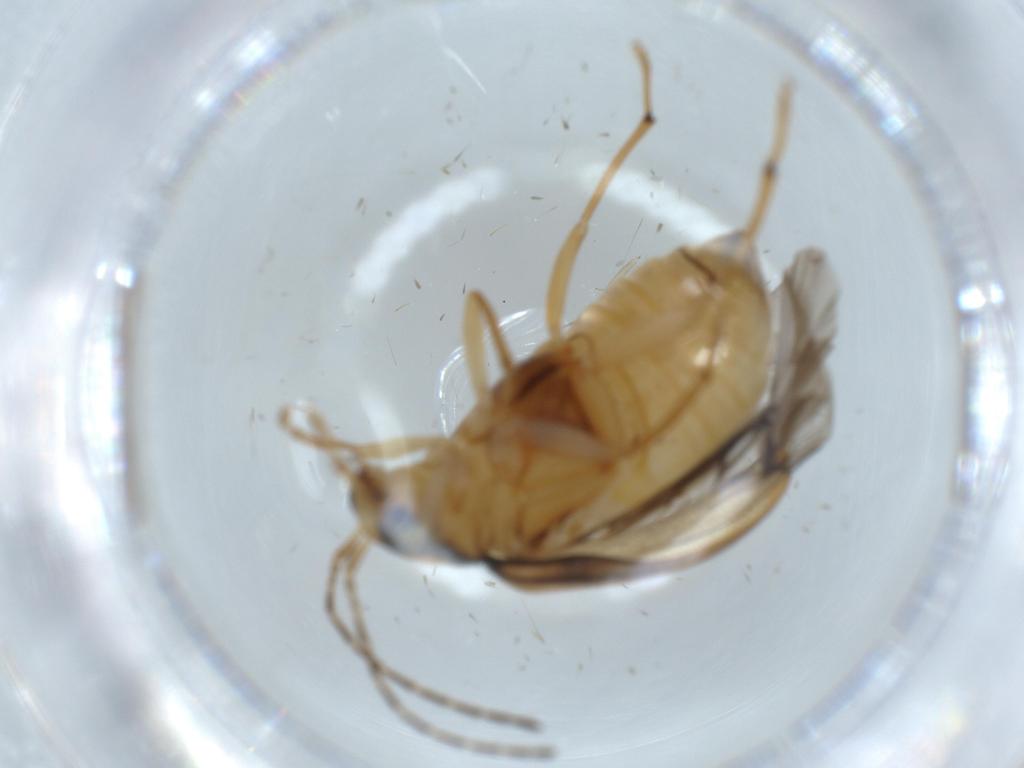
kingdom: Animalia
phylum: Arthropoda
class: Insecta
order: Coleoptera
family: Chrysomelidae
